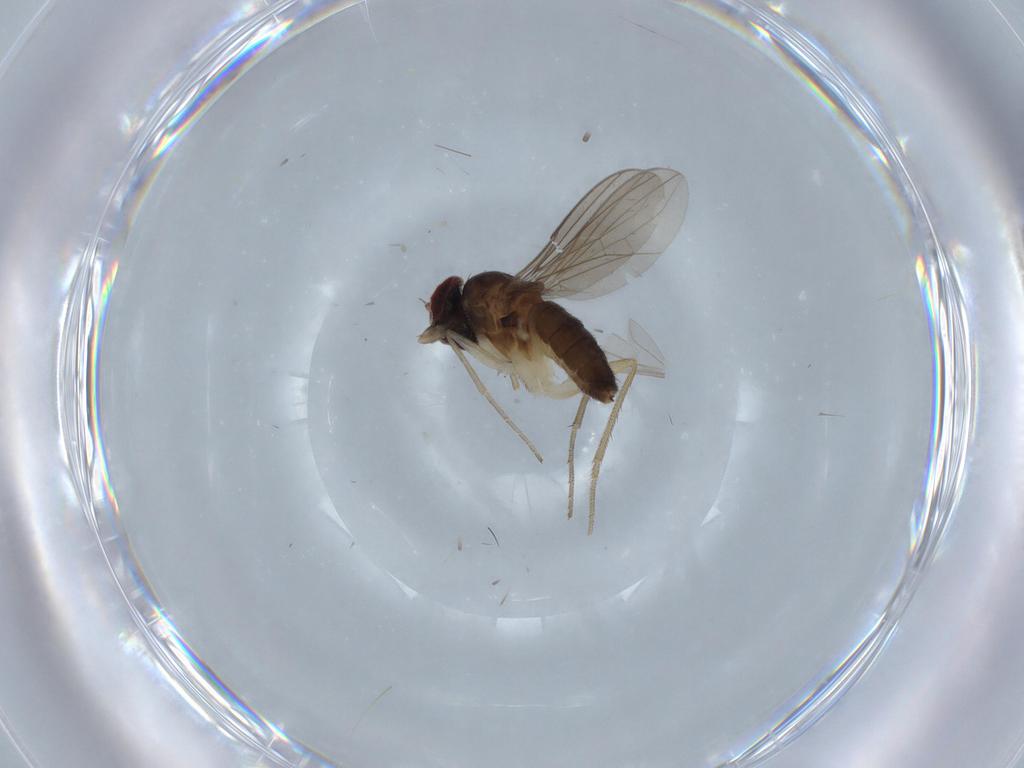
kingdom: Animalia
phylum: Arthropoda
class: Insecta
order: Diptera
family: Dolichopodidae
